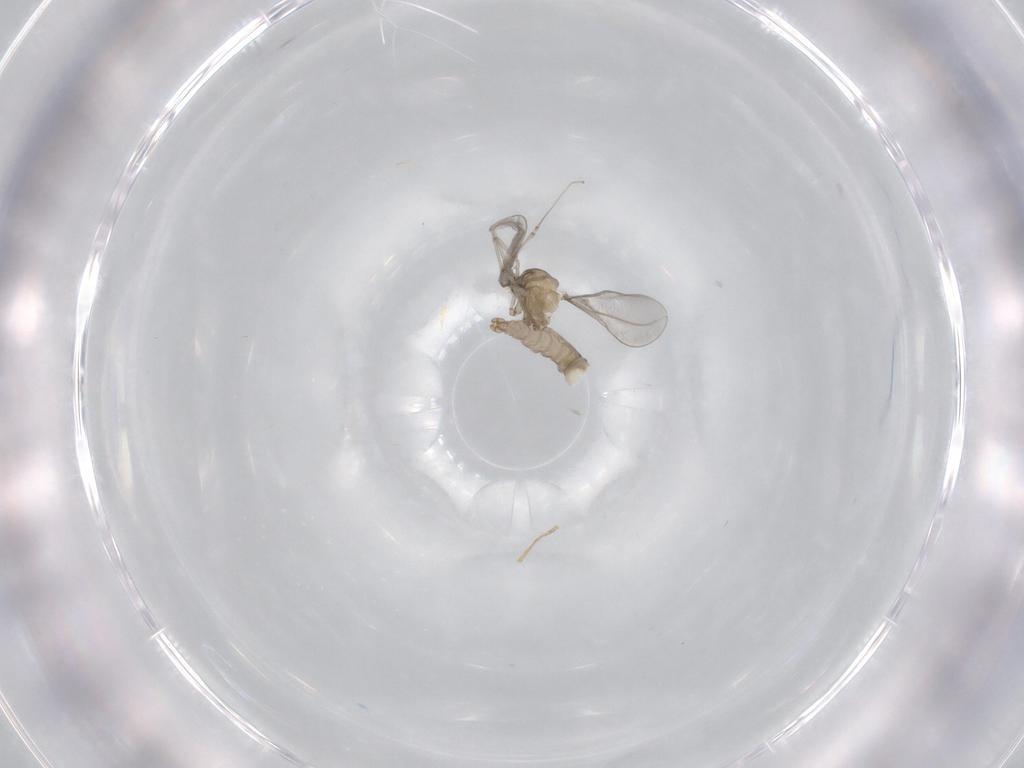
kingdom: Animalia
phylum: Arthropoda
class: Insecta
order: Diptera
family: Cecidomyiidae
